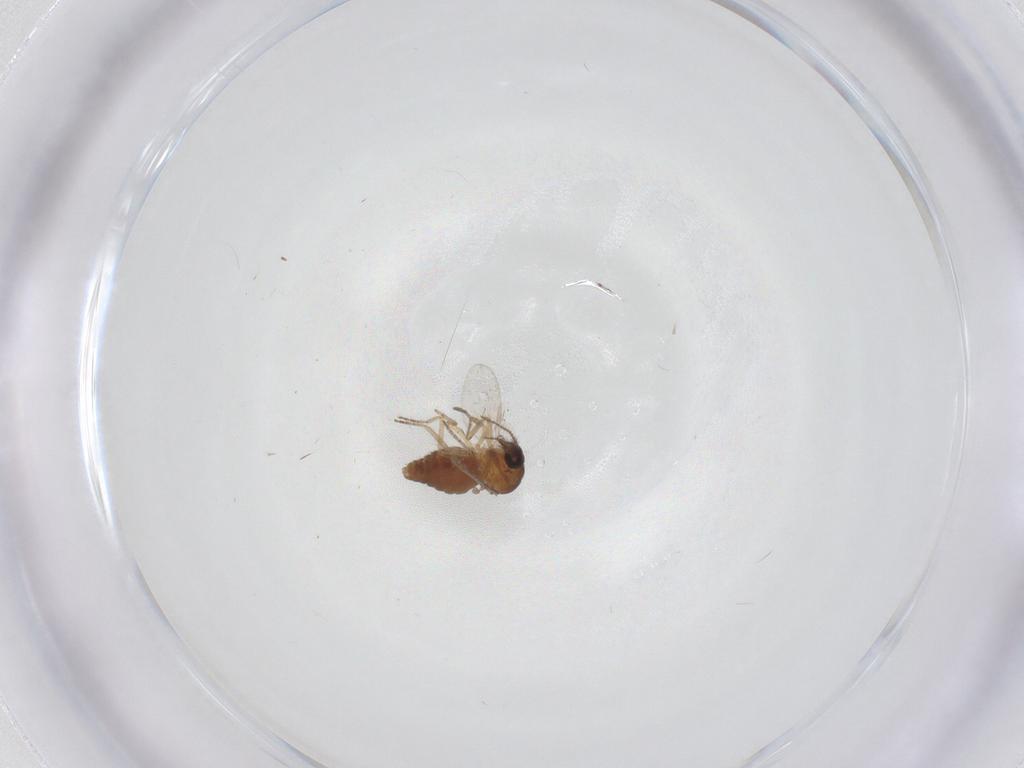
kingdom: Animalia
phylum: Arthropoda
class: Insecta
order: Diptera
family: Ceratopogonidae
